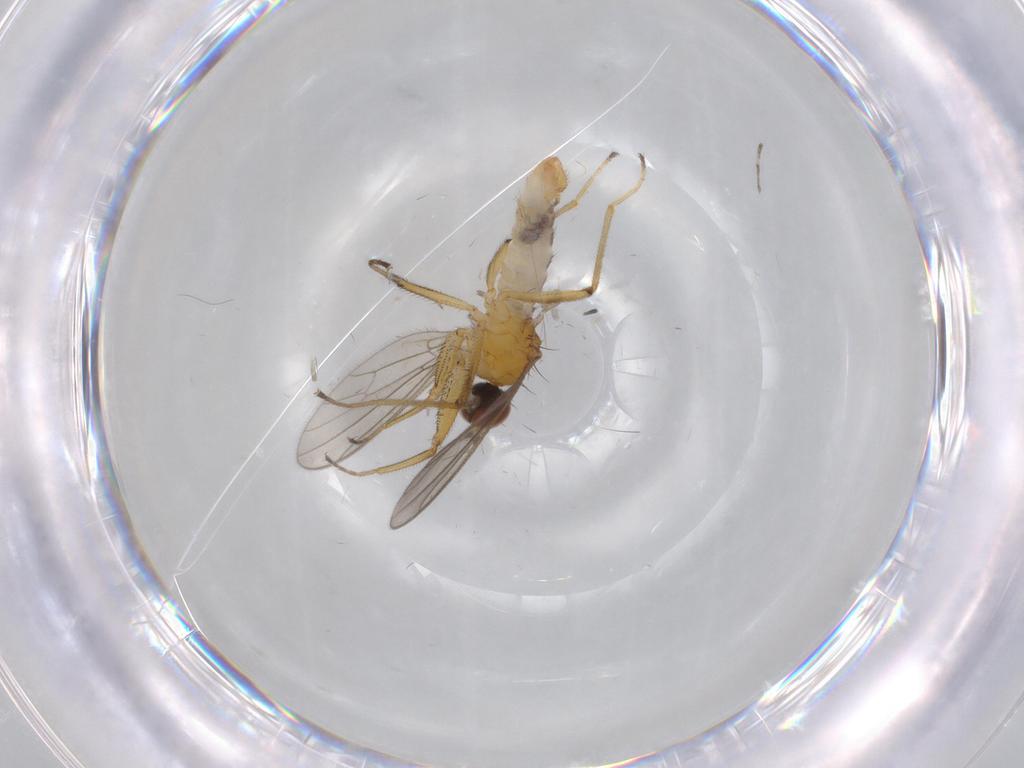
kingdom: Animalia
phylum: Arthropoda
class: Insecta
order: Diptera
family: Empididae
